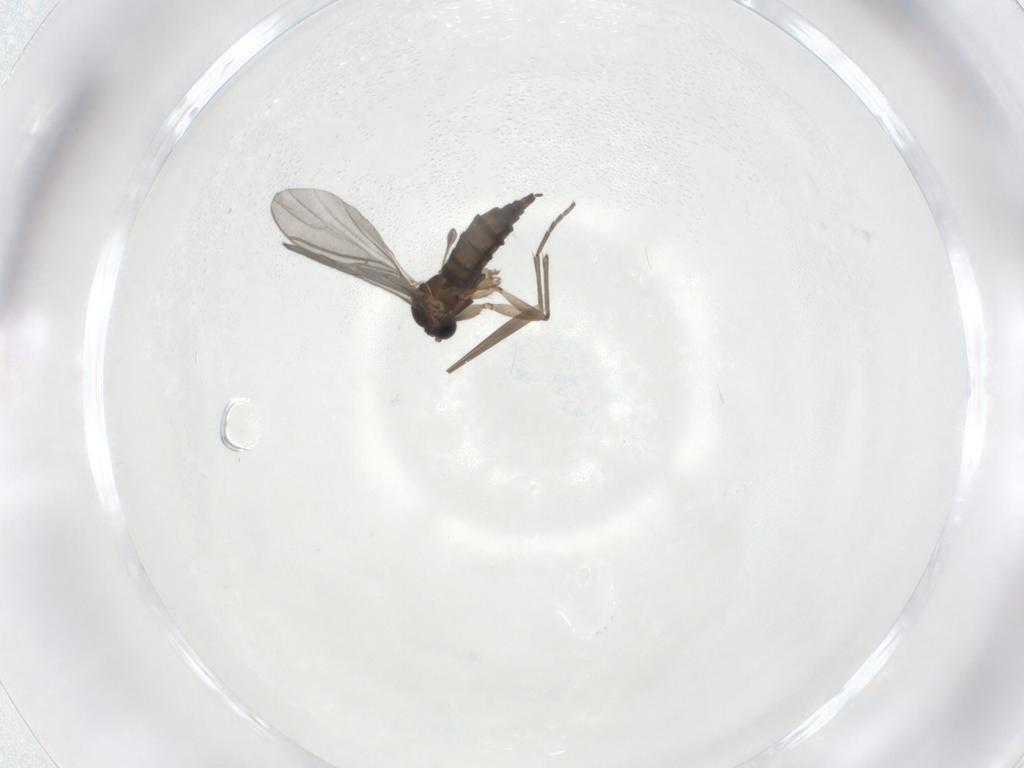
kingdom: Animalia
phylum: Arthropoda
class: Insecta
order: Diptera
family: Sciaridae
